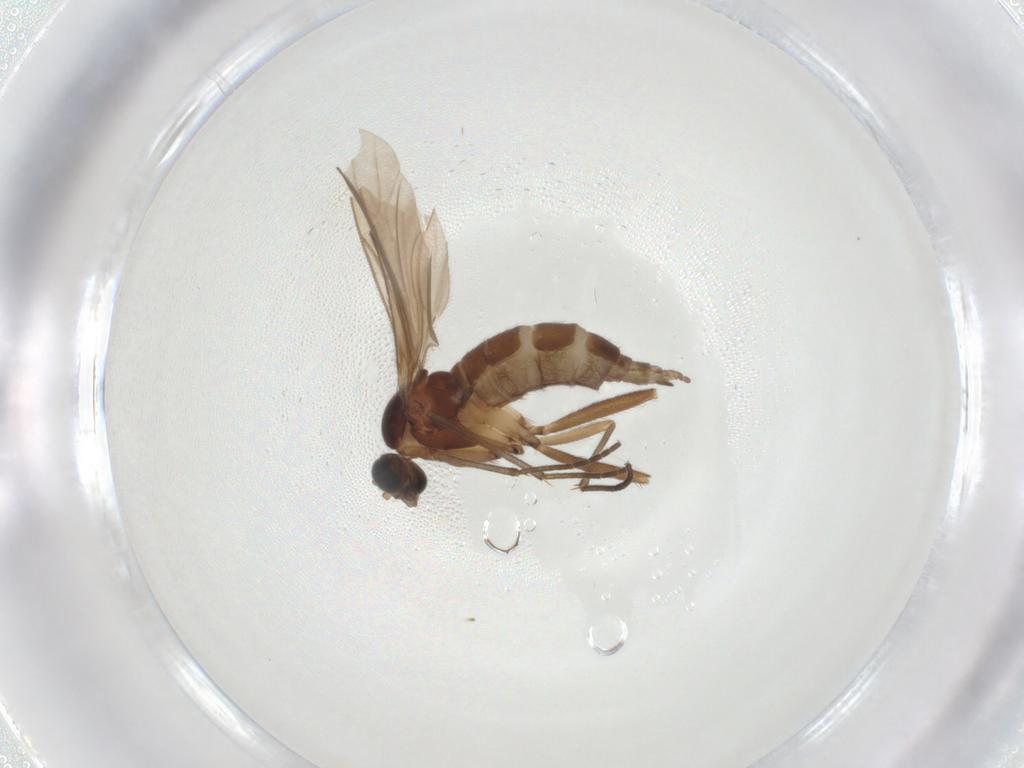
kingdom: Animalia
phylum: Arthropoda
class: Insecta
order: Diptera
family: Sciaridae
